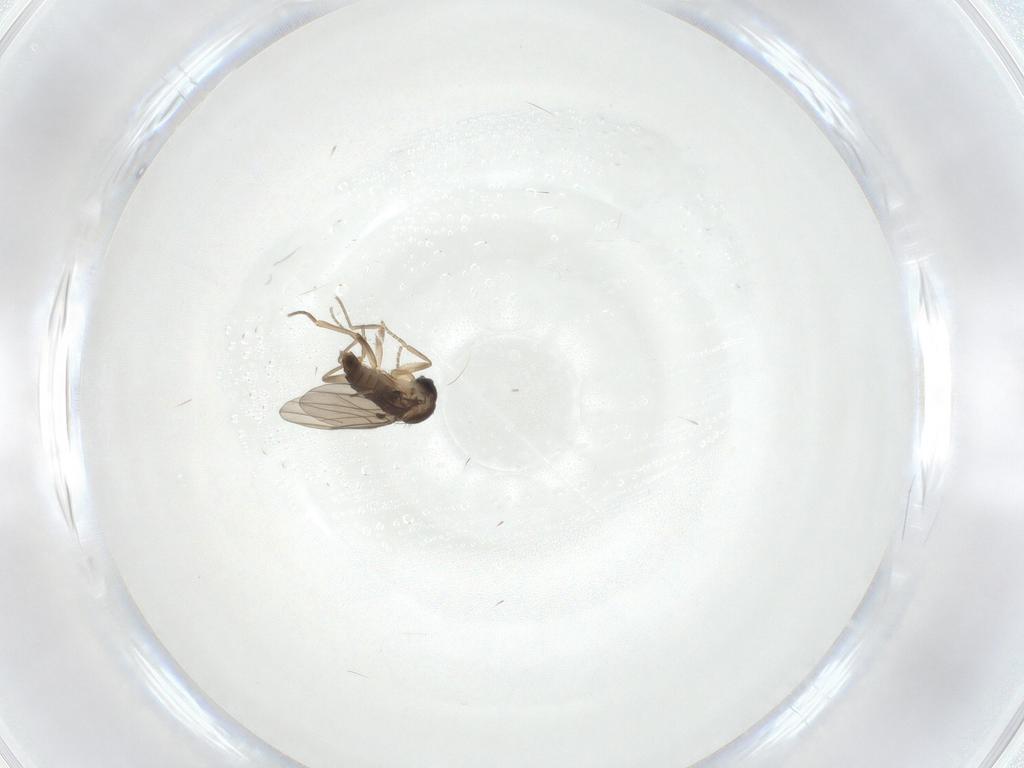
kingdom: Animalia
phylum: Arthropoda
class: Insecta
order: Diptera
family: Phoridae
